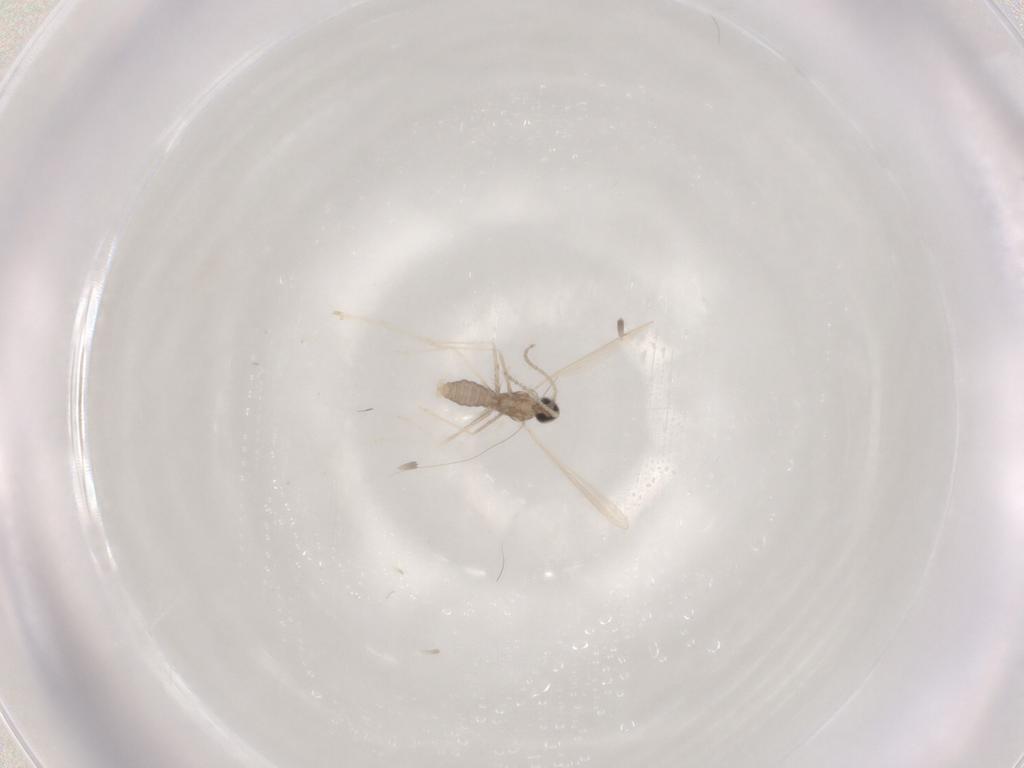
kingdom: Animalia
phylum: Arthropoda
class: Insecta
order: Diptera
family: Cecidomyiidae
